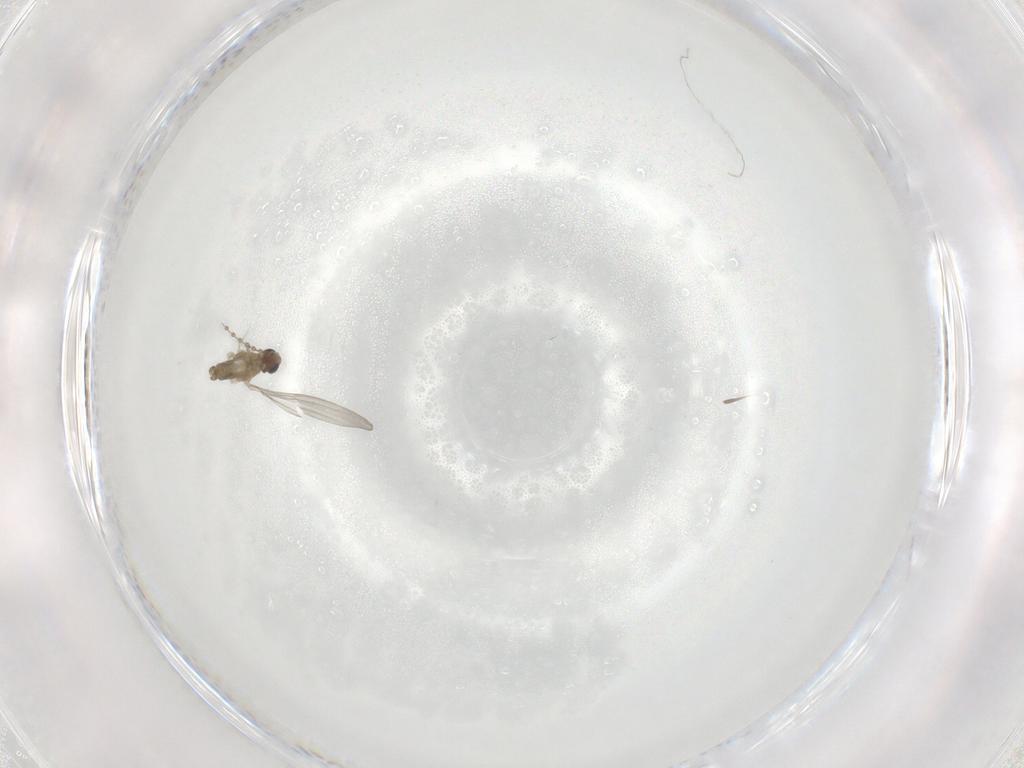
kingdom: Animalia
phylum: Arthropoda
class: Insecta
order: Diptera
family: Cecidomyiidae
